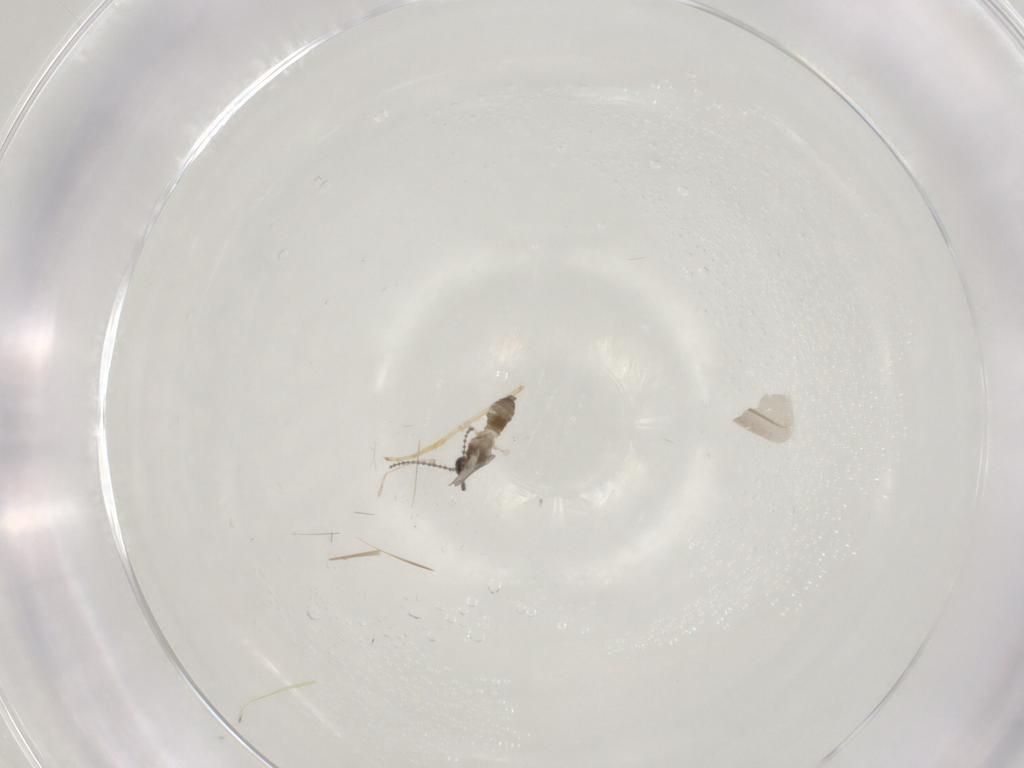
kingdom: Animalia
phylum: Arthropoda
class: Insecta
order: Diptera
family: Cecidomyiidae
